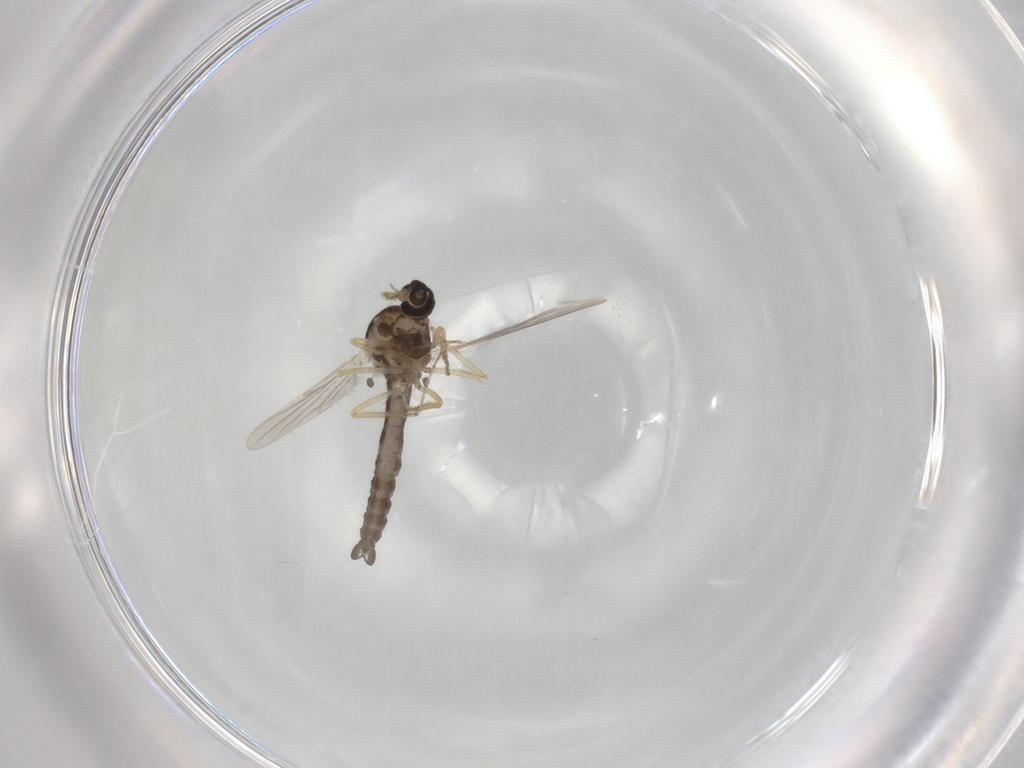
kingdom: Animalia
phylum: Arthropoda
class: Insecta
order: Diptera
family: Ceratopogonidae
